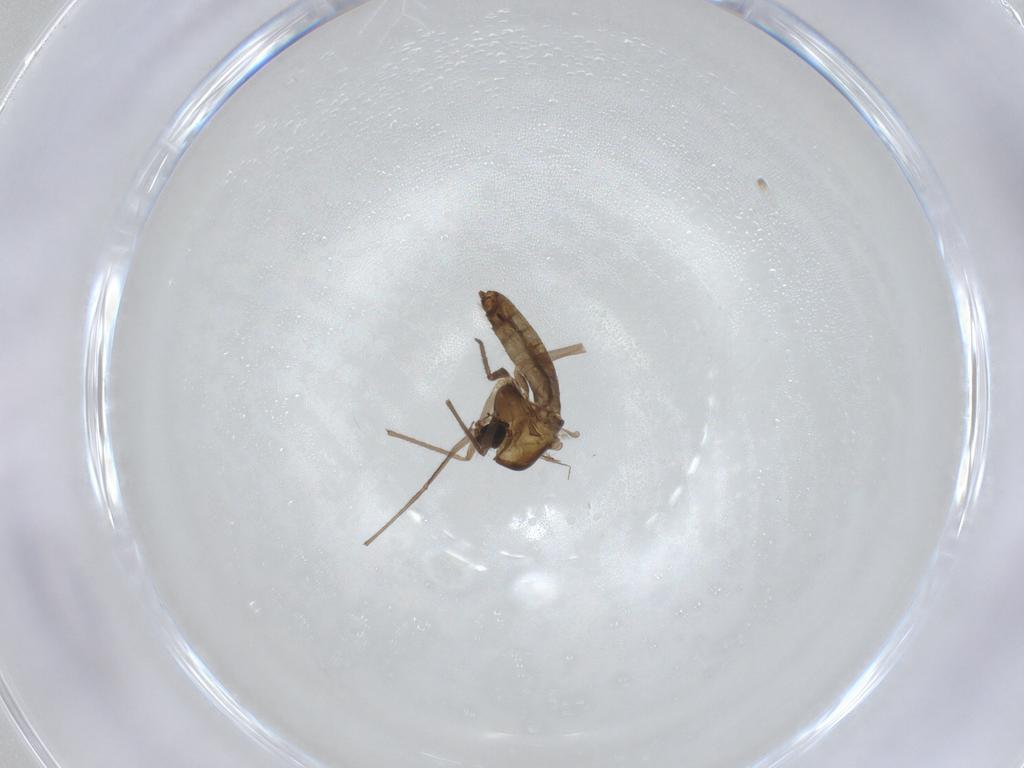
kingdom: Animalia
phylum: Arthropoda
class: Insecta
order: Diptera
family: Chironomidae
